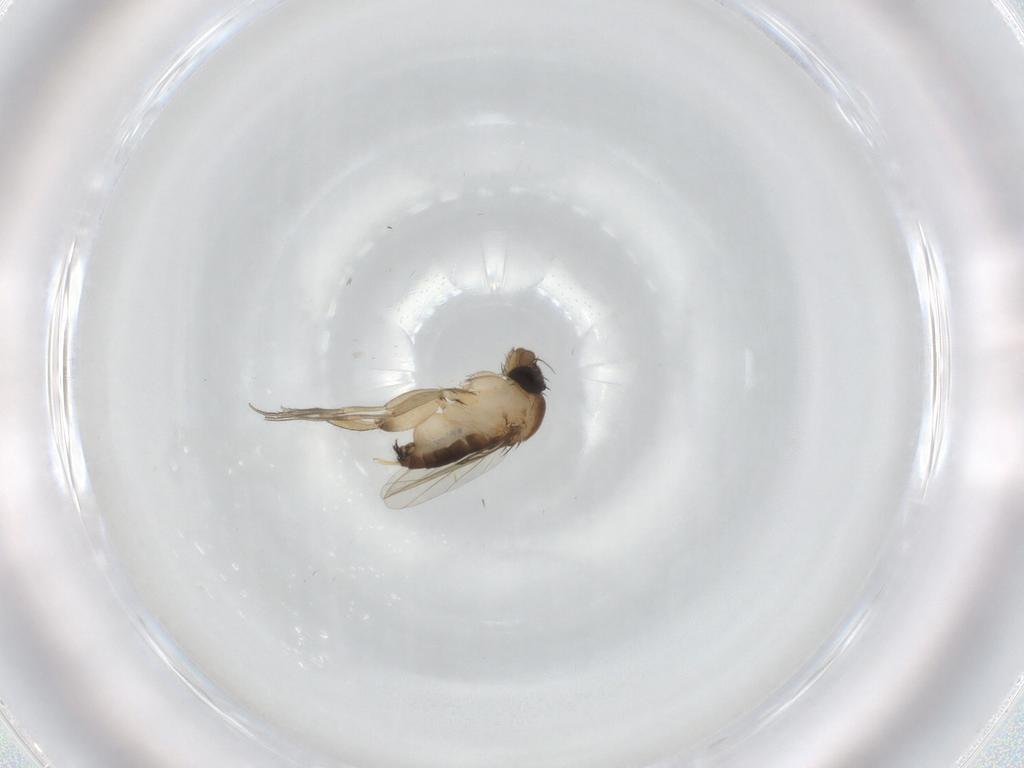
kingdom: Animalia
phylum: Arthropoda
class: Insecta
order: Diptera
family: Phoridae
